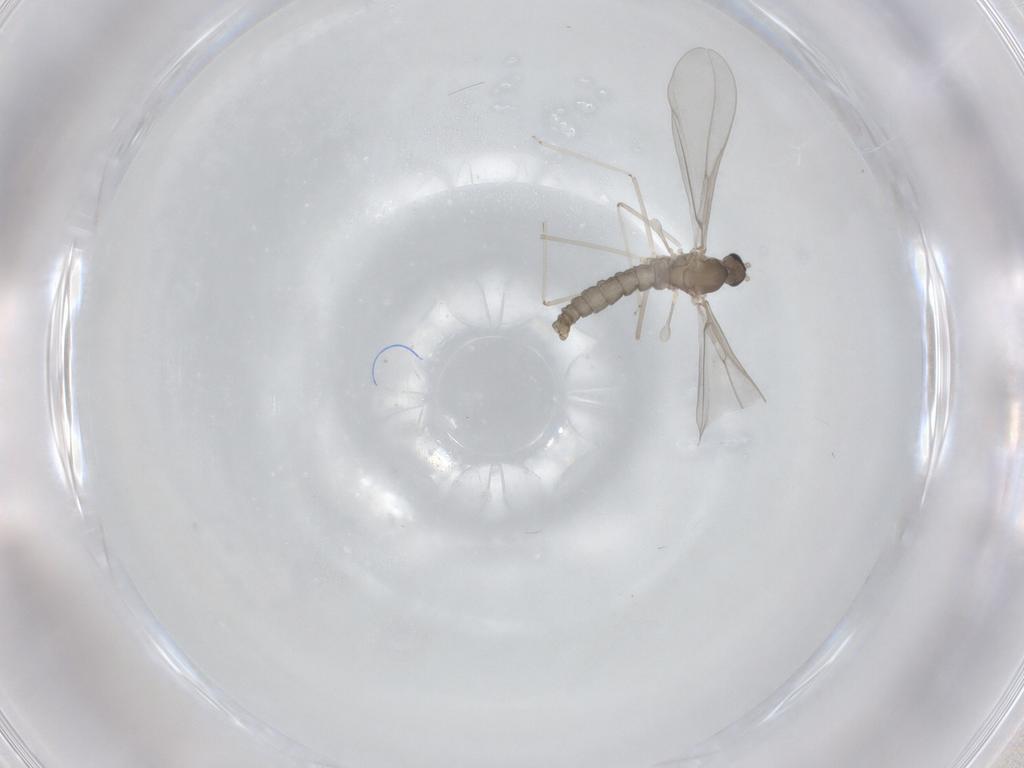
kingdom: Animalia
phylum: Arthropoda
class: Insecta
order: Diptera
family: Cecidomyiidae
